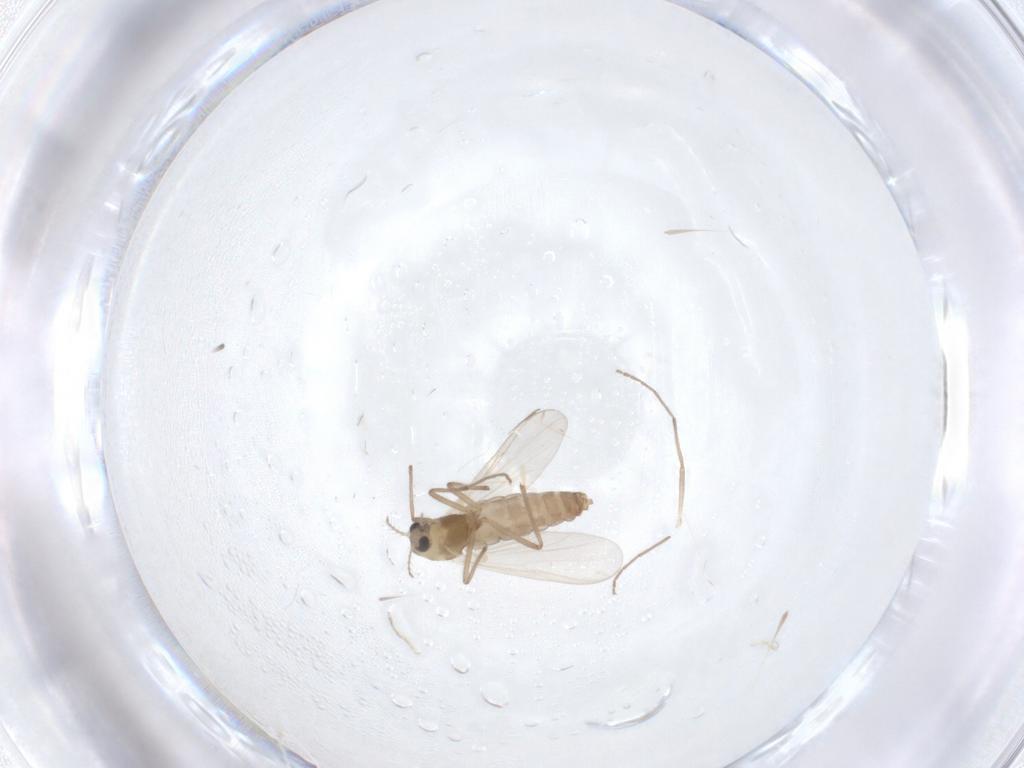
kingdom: Animalia
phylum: Arthropoda
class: Insecta
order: Diptera
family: Chironomidae
